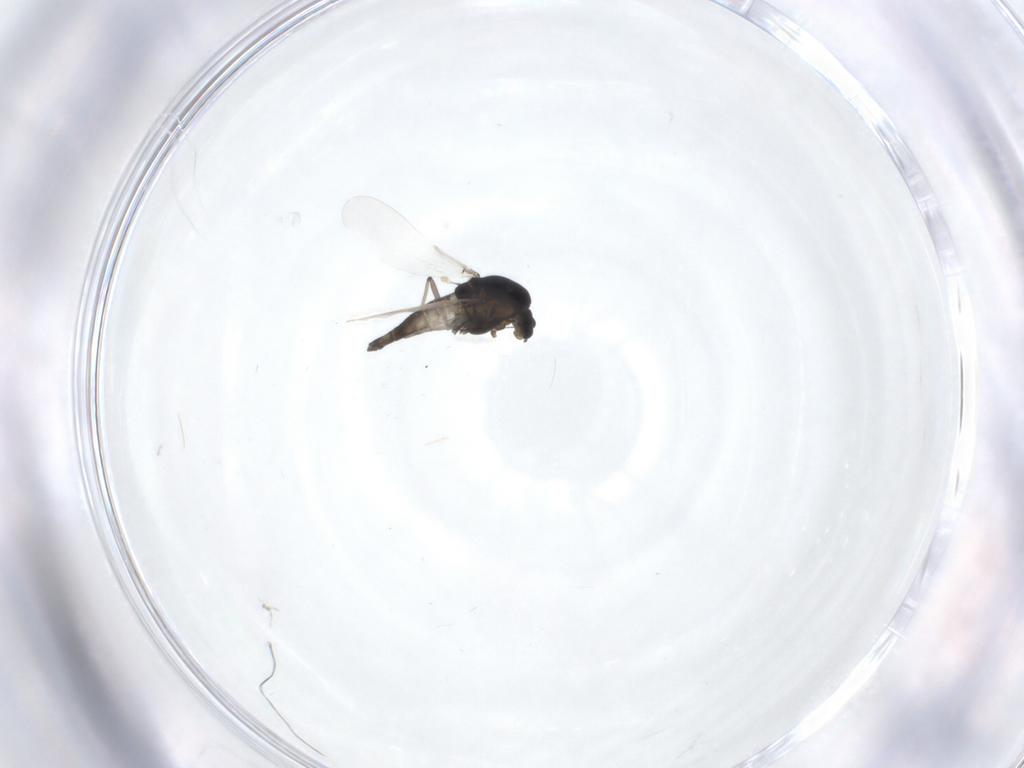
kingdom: Animalia
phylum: Arthropoda
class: Insecta
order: Diptera
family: Chironomidae
